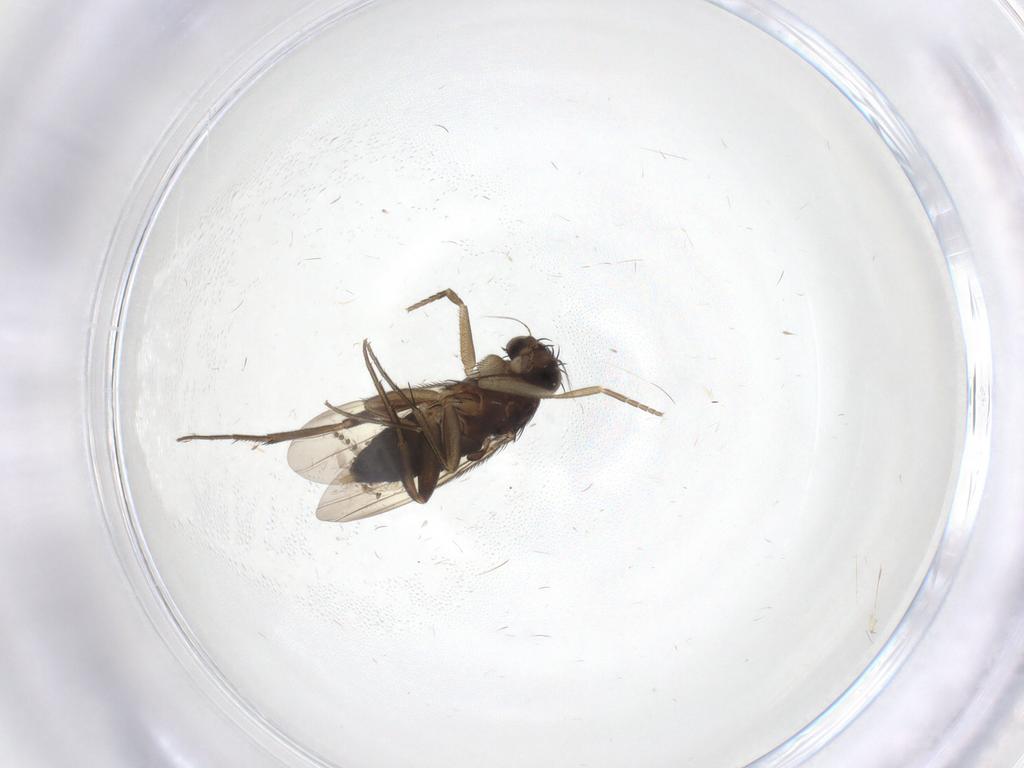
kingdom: Animalia
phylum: Arthropoda
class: Insecta
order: Diptera
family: Phoridae
